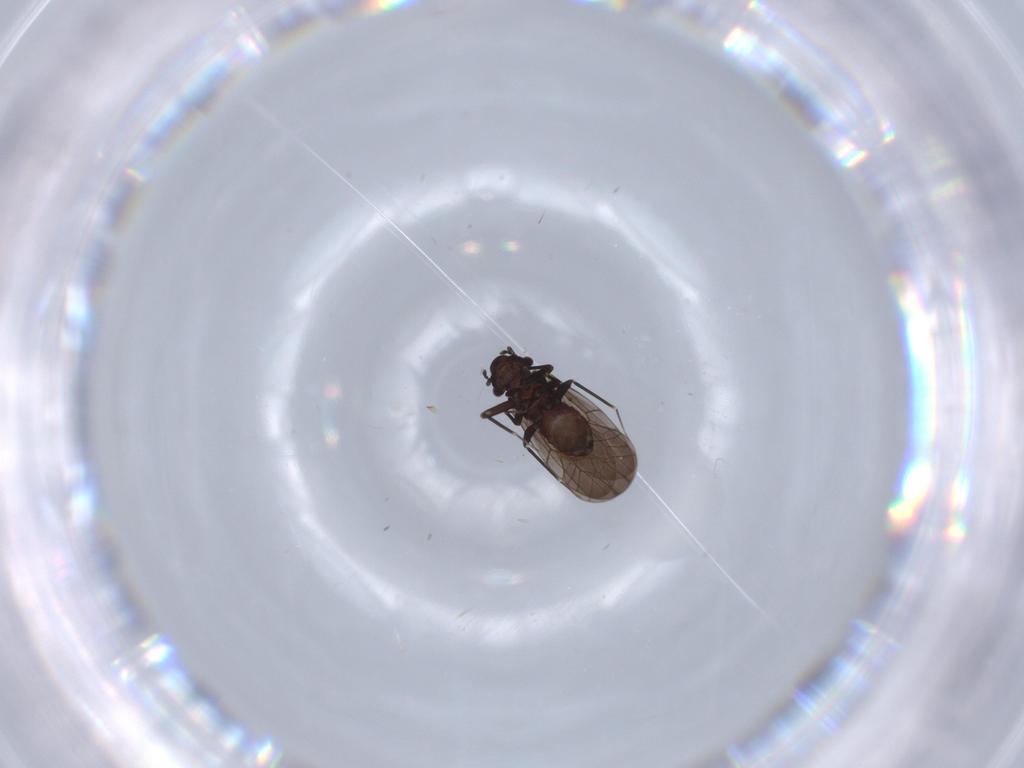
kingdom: Animalia
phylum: Arthropoda
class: Insecta
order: Psocodea
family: Lepidopsocidae
